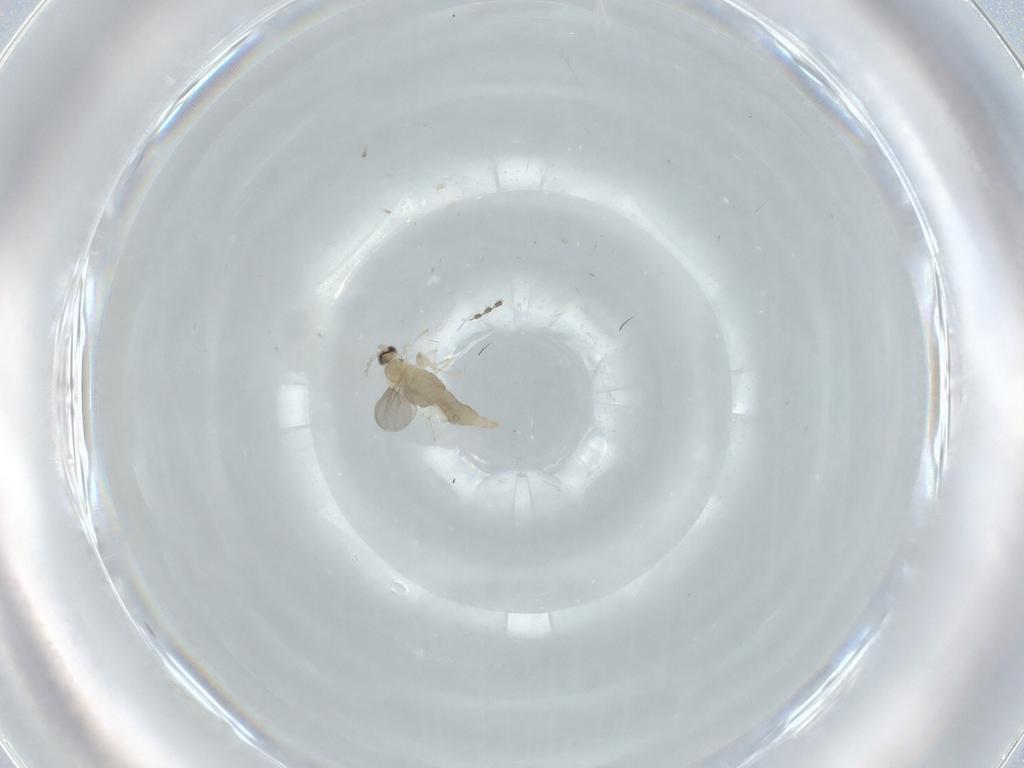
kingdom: Animalia
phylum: Arthropoda
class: Insecta
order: Diptera
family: Cecidomyiidae
